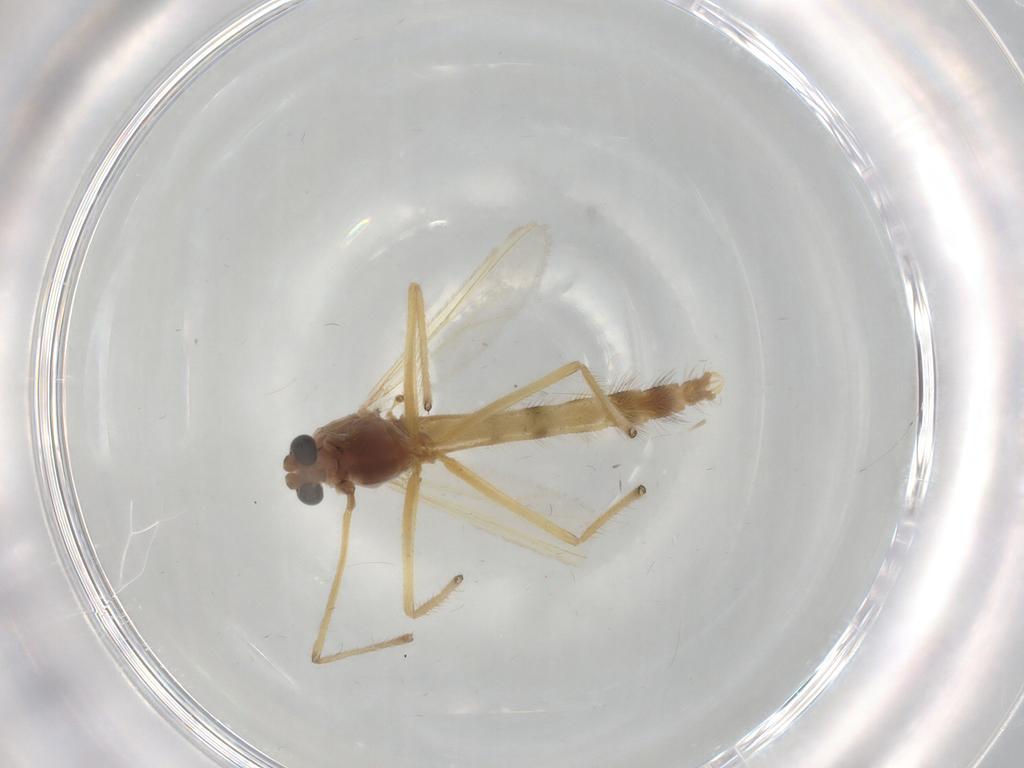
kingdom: Animalia
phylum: Arthropoda
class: Insecta
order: Diptera
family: Chironomidae
